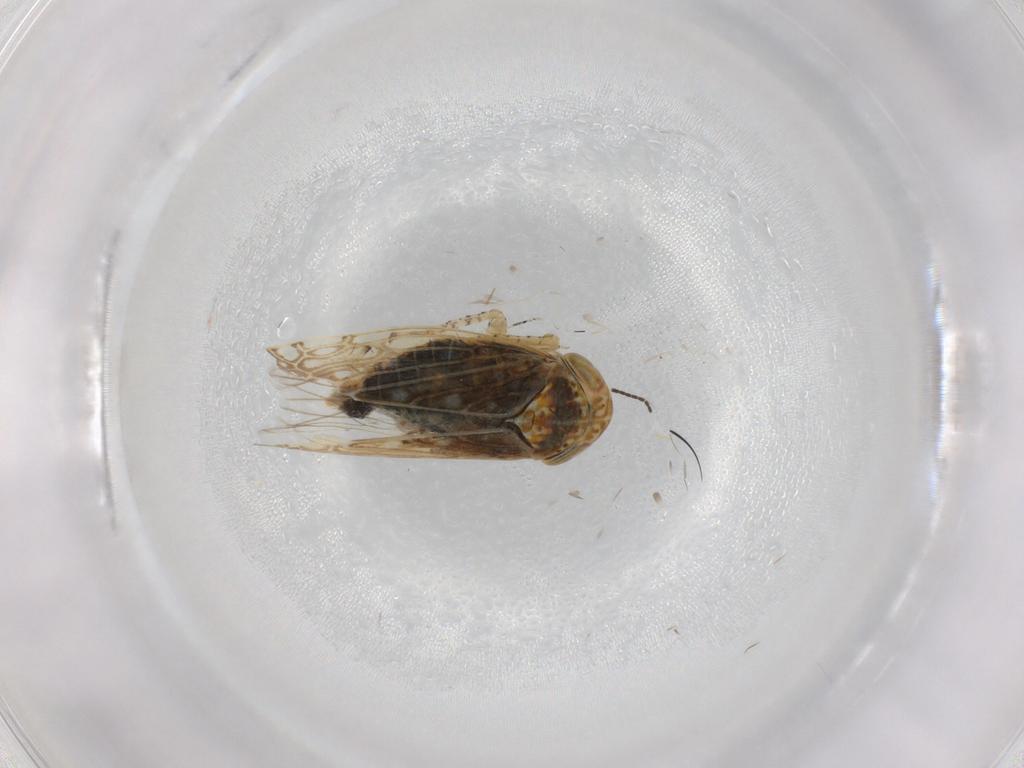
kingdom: Animalia
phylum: Arthropoda
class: Insecta
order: Hemiptera
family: Cicadellidae
